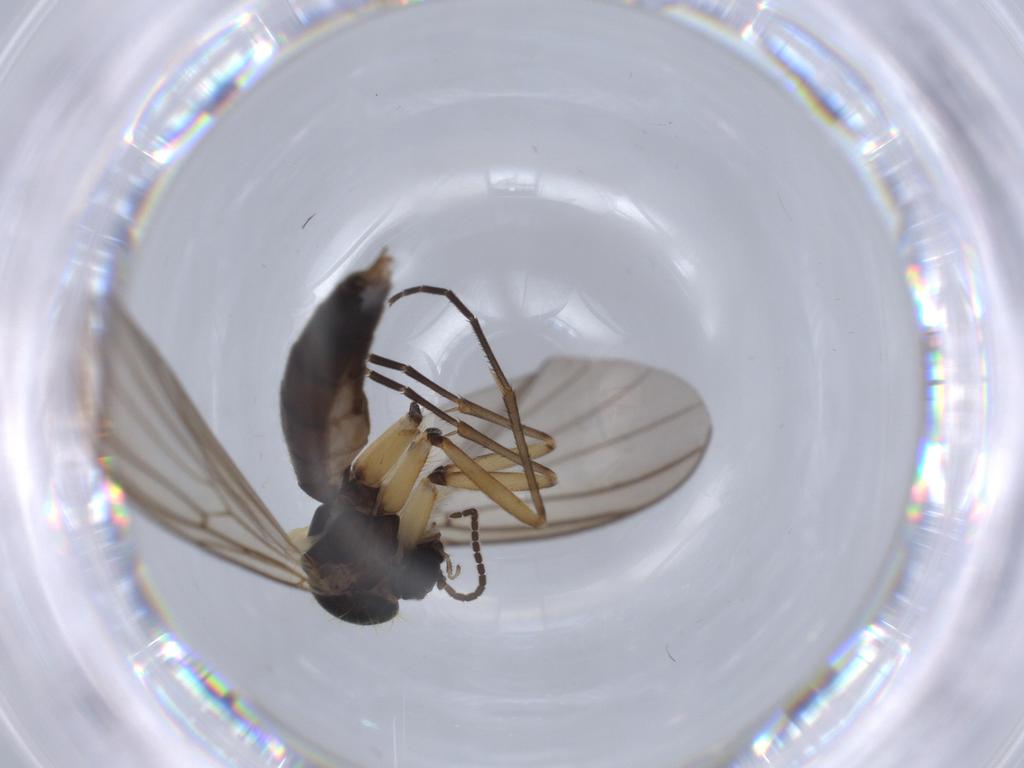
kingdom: Animalia
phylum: Arthropoda
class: Insecta
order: Diptera
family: Mycetophilidae
